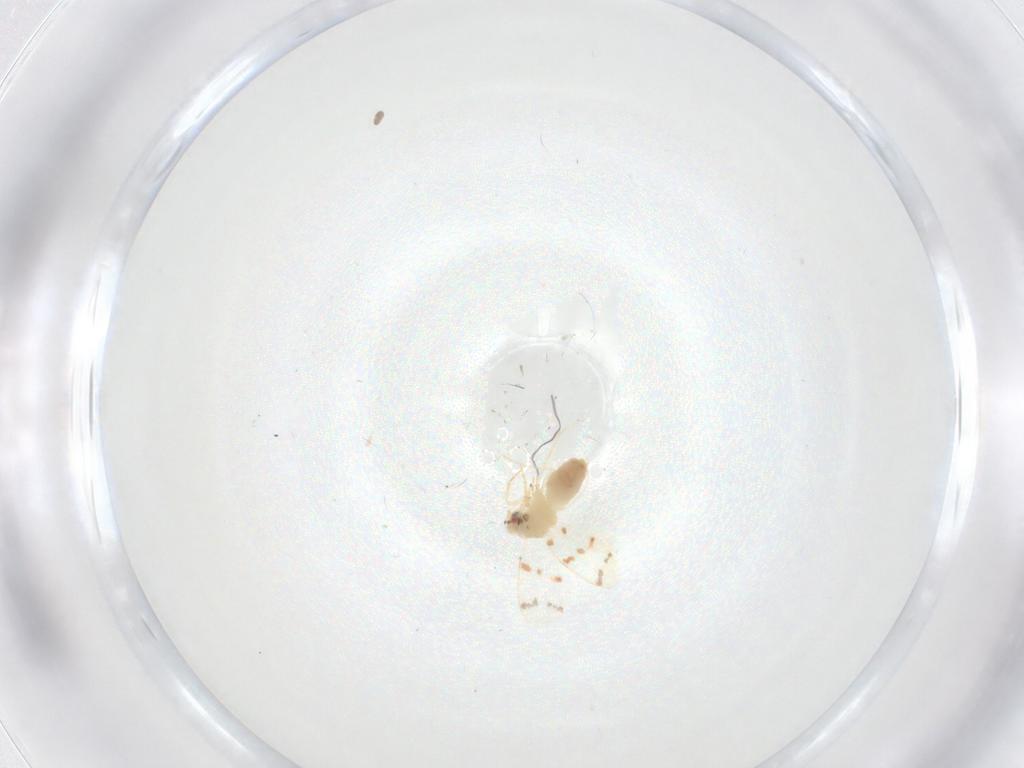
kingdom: Animalia
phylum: Arthropoda
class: Insecta
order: Hemiptera
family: Aleyrodidae
